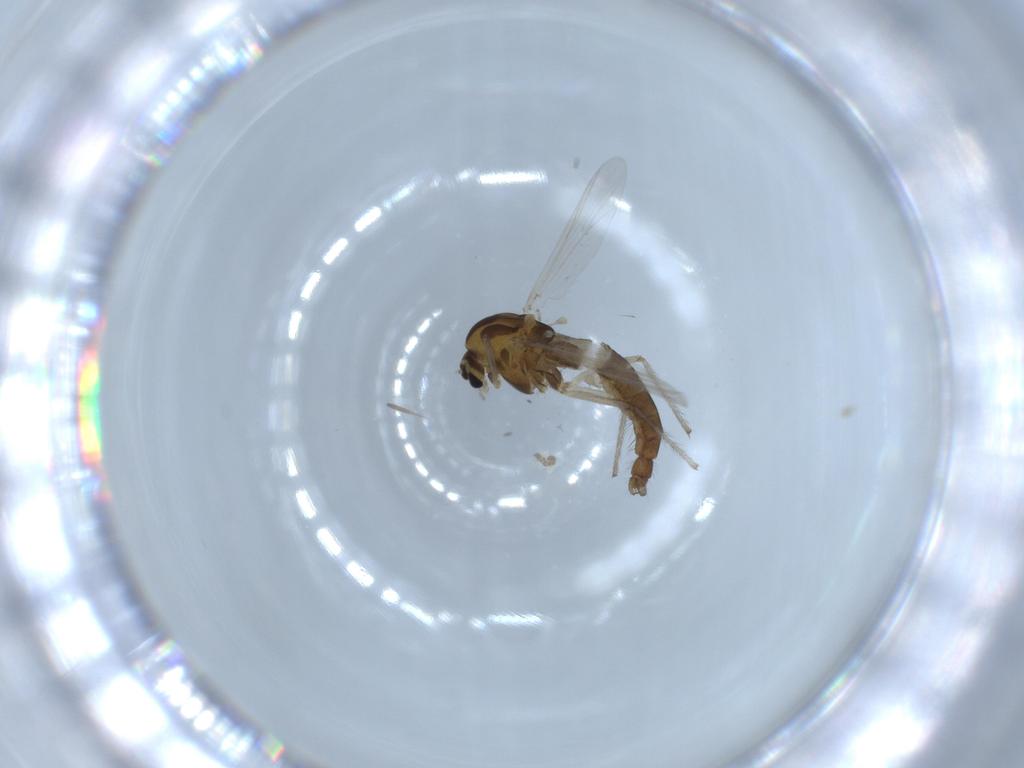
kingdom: Animalia
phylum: Arthropoda
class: Insecta
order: Diptera
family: Chironomidae
